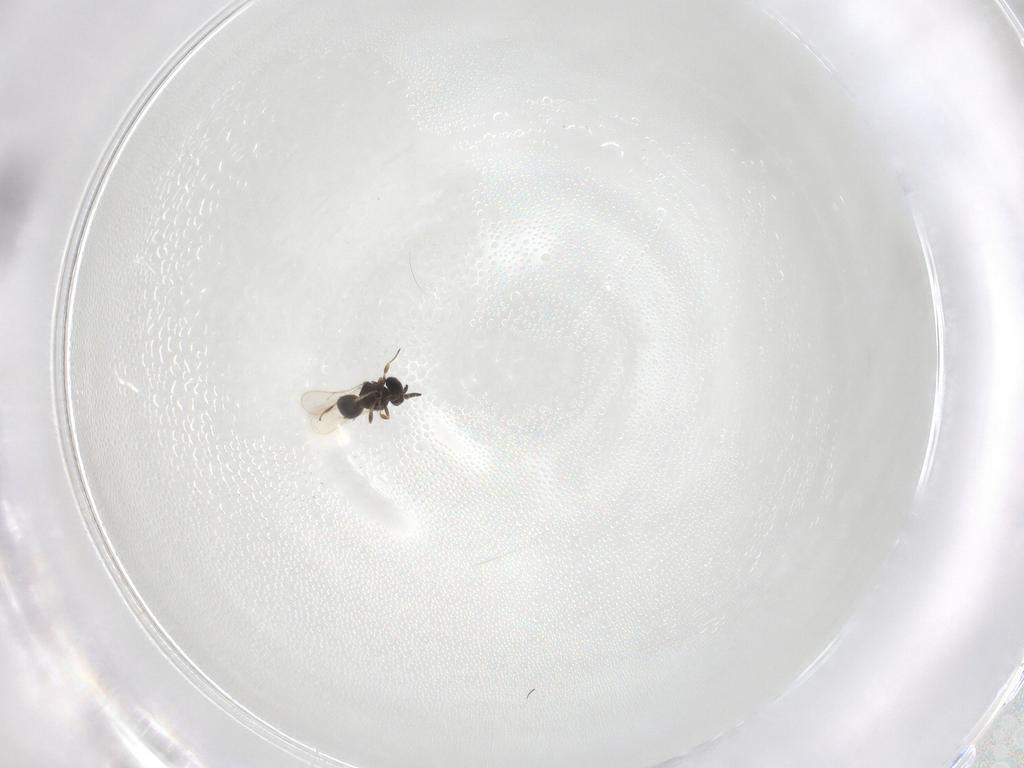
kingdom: Animalia
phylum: Arthropoda
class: Insecta
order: Hymenoptera
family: Scelionidae
